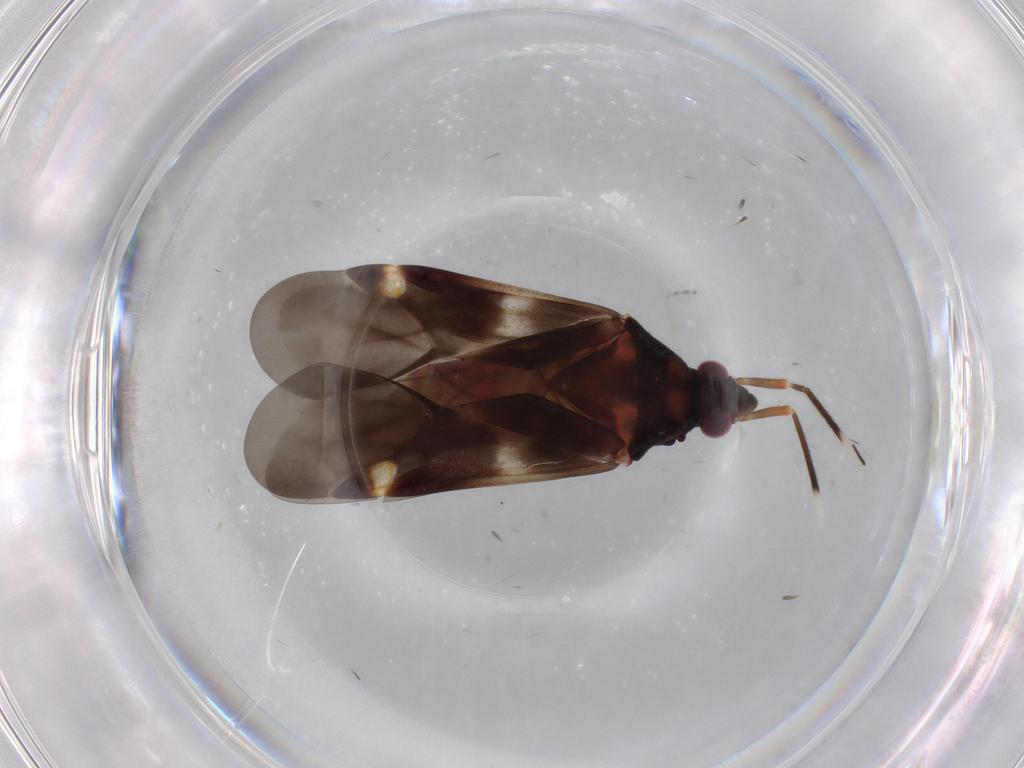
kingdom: Animalia
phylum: Arthropoda
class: Insecta
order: Hemiptera
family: Miridae
